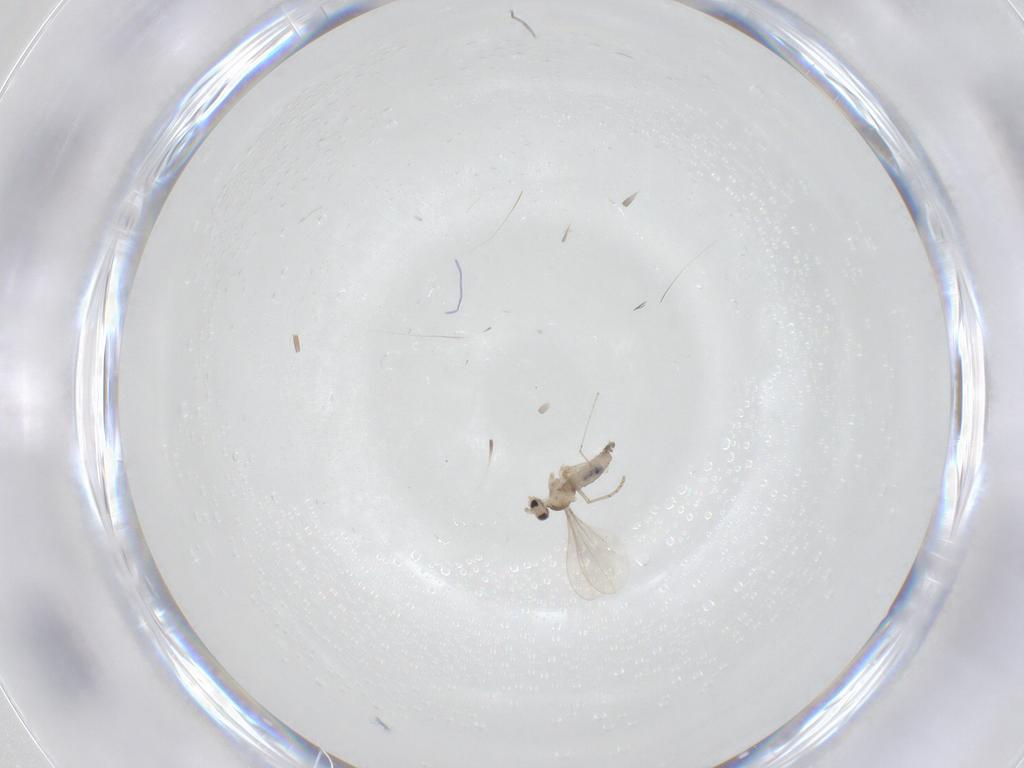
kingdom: Animalia
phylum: Arthropoda
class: Insecta
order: Diptera
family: Cecidomyiidae
